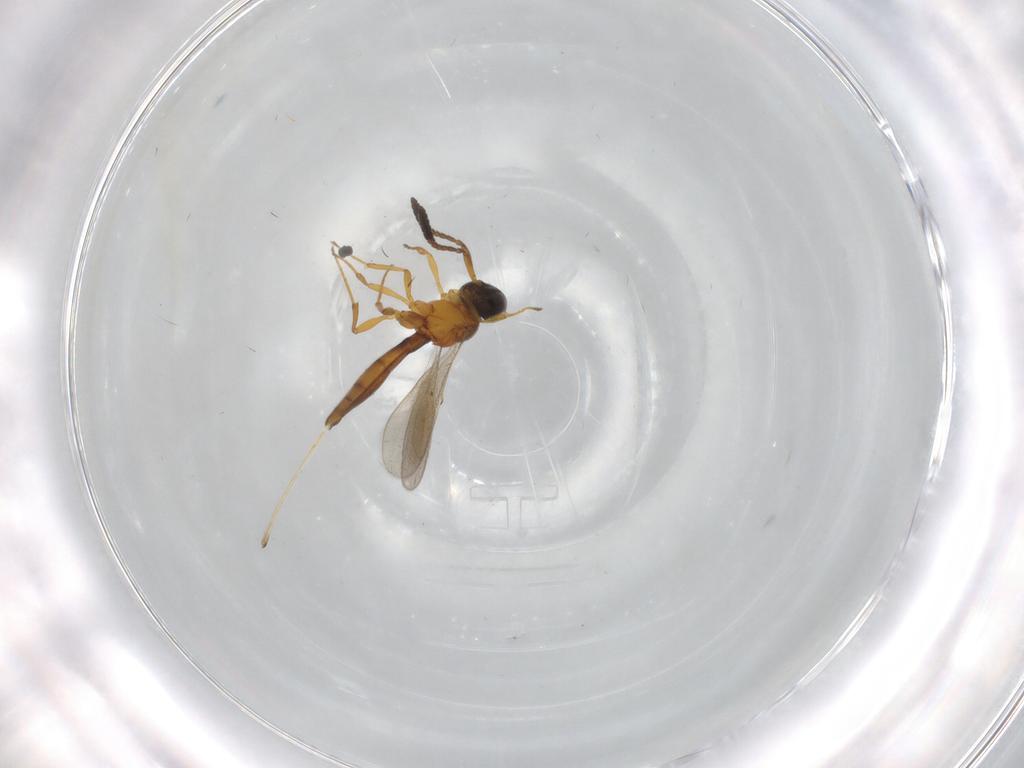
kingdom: Animalia
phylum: Arthropoda
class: Insecta
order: Hymenoptera
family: Scelionidae
